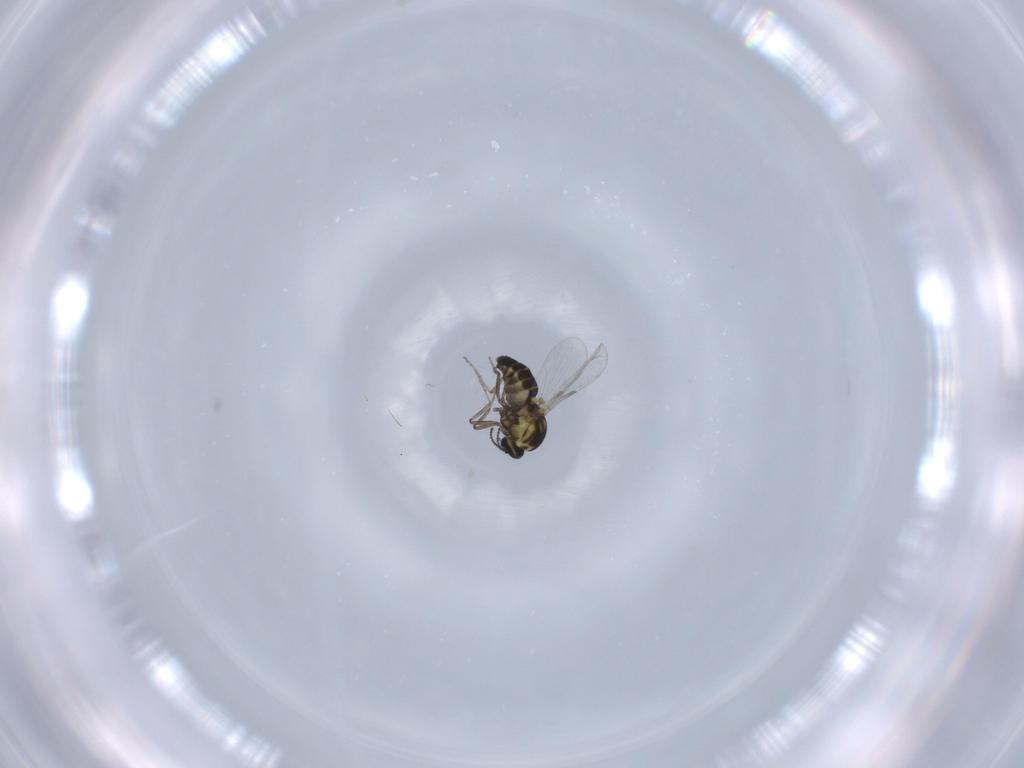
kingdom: Animalia
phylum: Arthropoda
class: Insecta
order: Diptera
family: Ceratopogonidae
